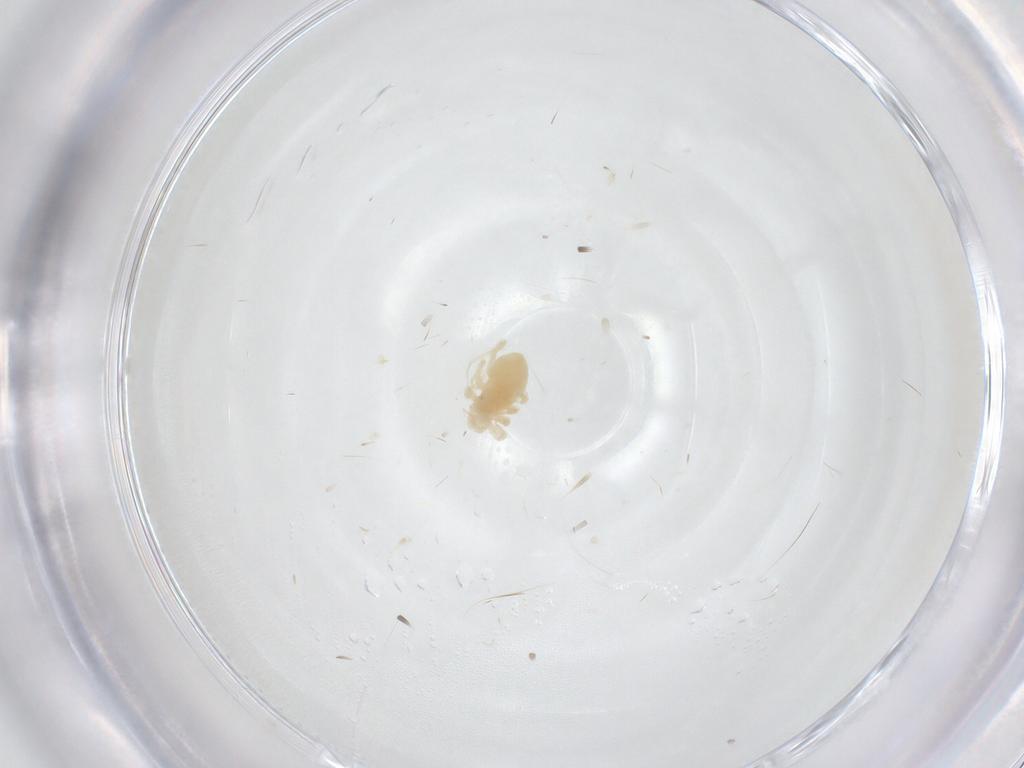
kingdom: Animalia
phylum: Arthropoda
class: Arachnida
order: Trombidiformes
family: Anystidae
